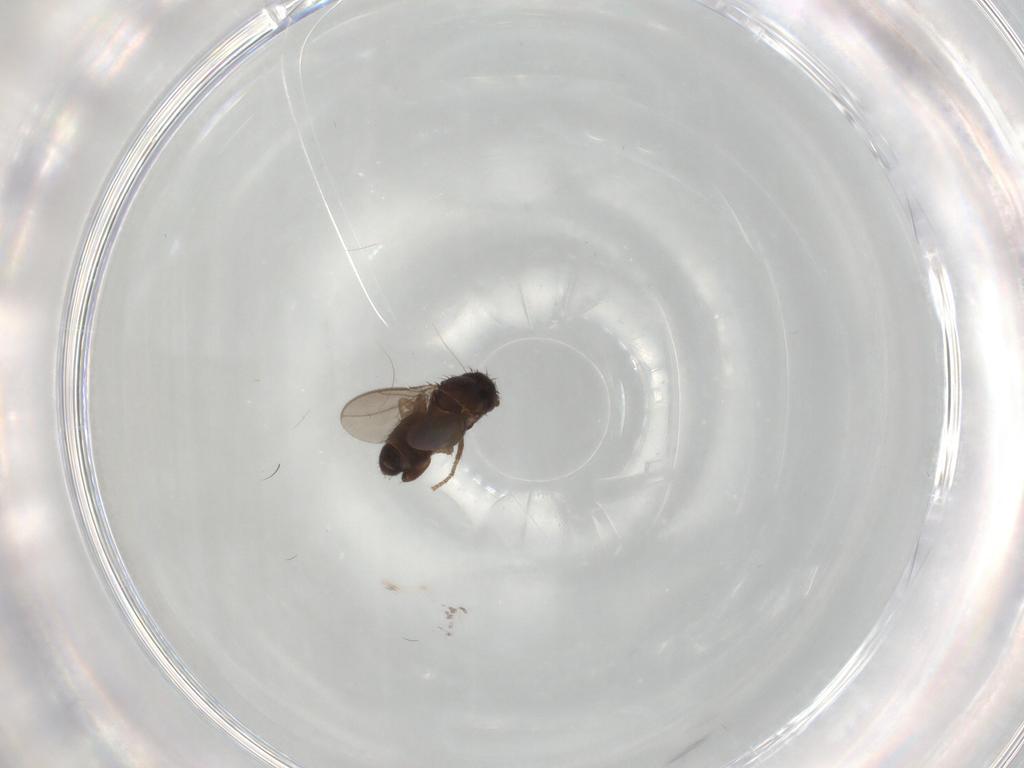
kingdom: Animalia
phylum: Arthropoda
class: Insecta
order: Diptera
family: Sphaeroceridae
